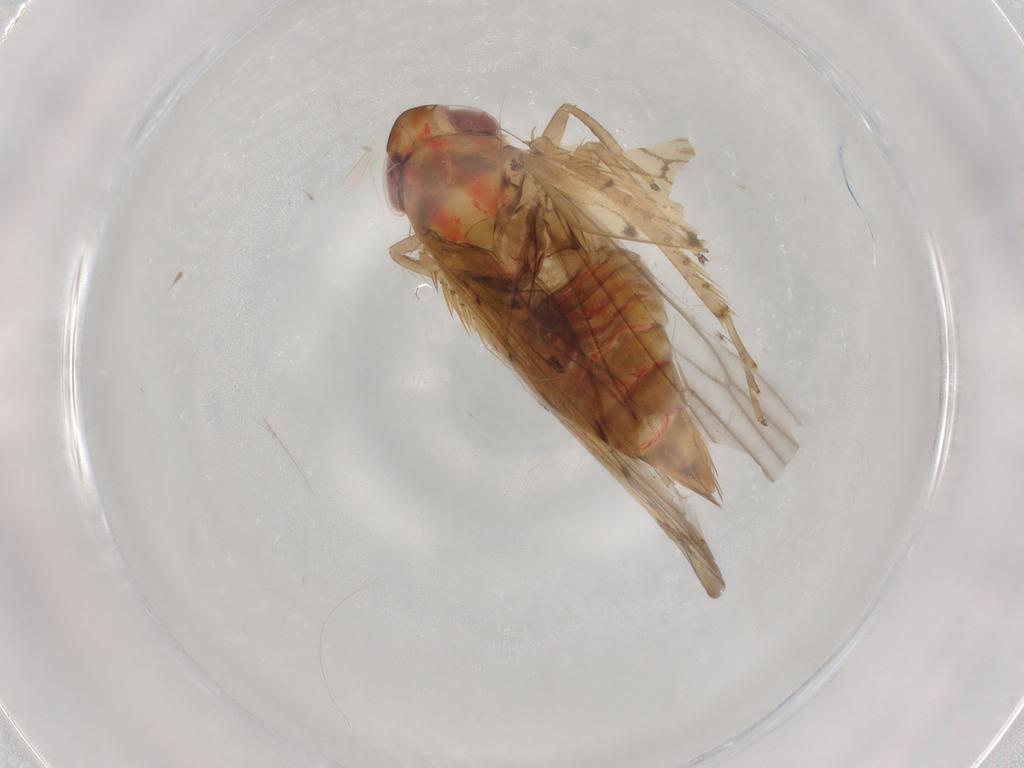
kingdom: Animalia
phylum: Arthropoda
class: Insecta
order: Hemiptera
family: Cicadellidae
